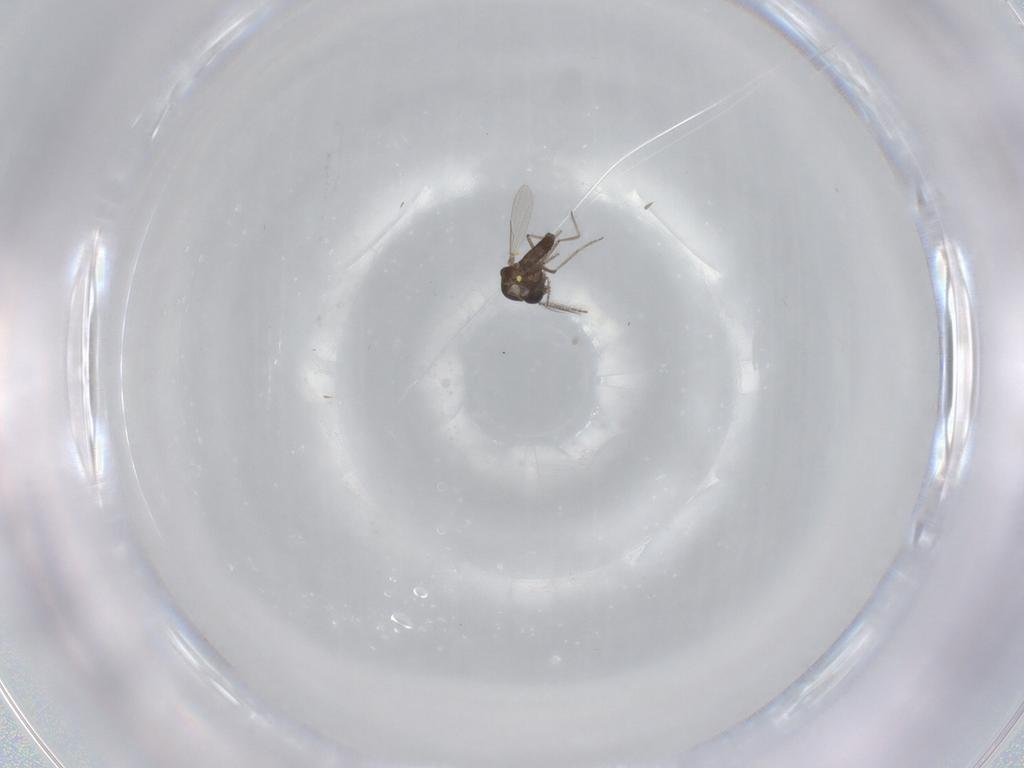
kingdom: Animalia
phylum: Arthropoda
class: Insecta
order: Diptera
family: Ceratopogonidae
